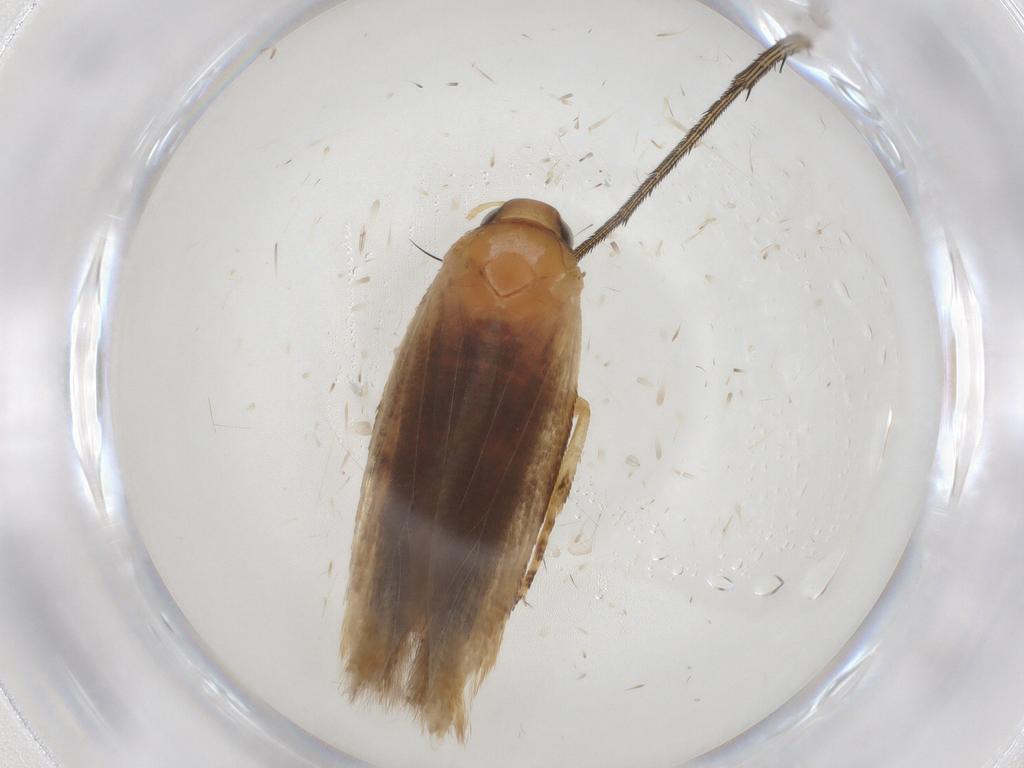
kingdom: Animalia
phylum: Arthropoda
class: Insecta
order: Lepidoptera
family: Gelechiidae
